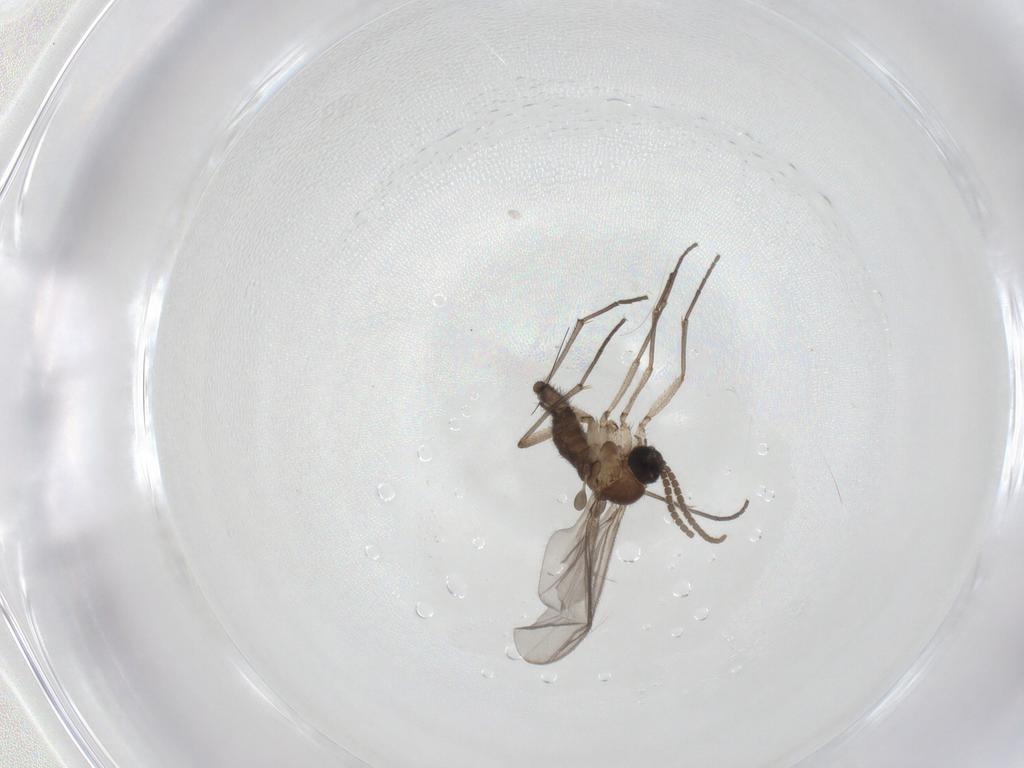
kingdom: Animalia
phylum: Arthropoda
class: Insecta
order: Diptera
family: Cecidomyiidae
